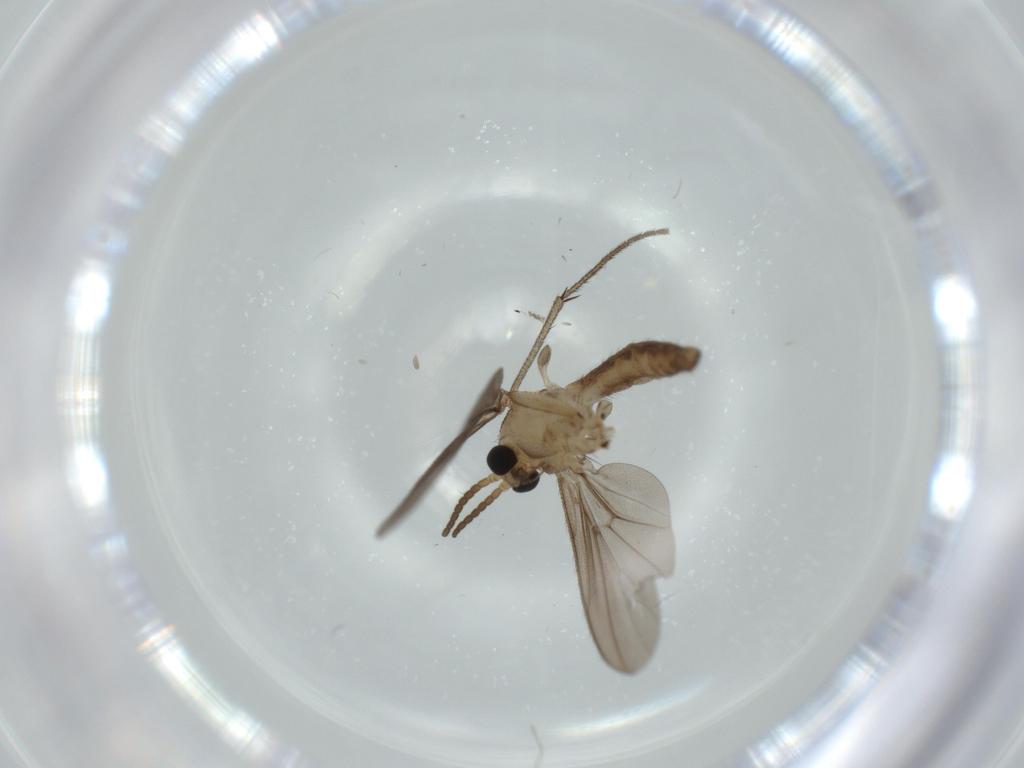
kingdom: Animalia
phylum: Arthropoda
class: Insecta
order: Diptera
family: Diadocidiidae
